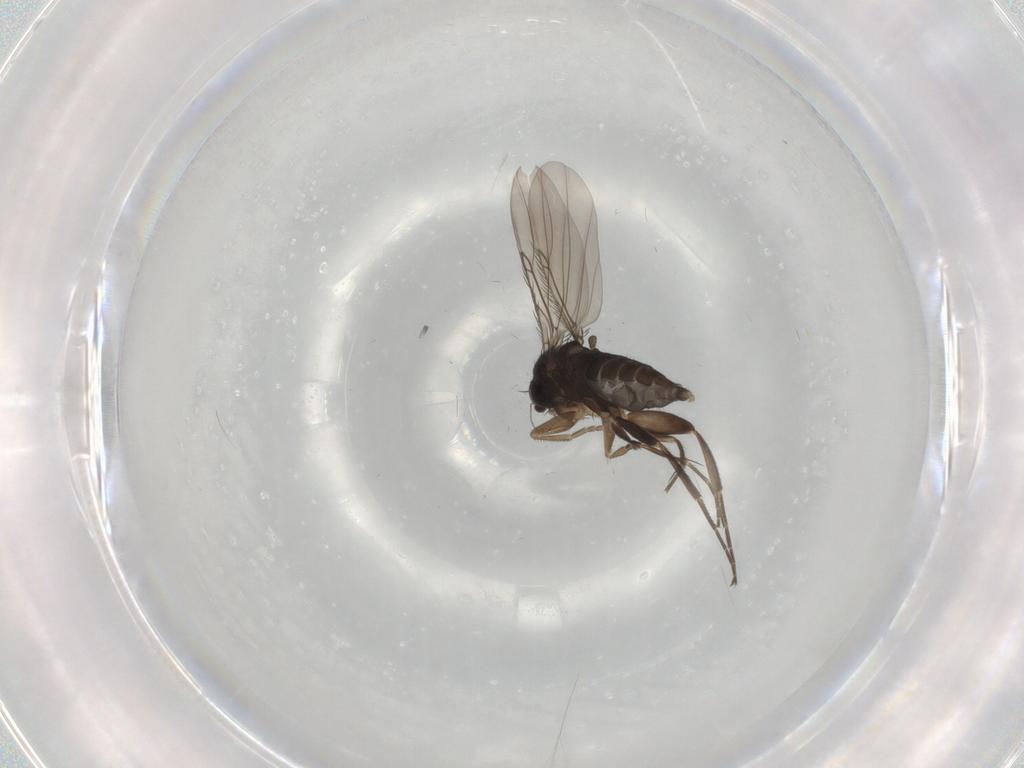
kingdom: Animalia
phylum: Arthropoda
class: Insecta
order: Diptera
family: Phoridae
